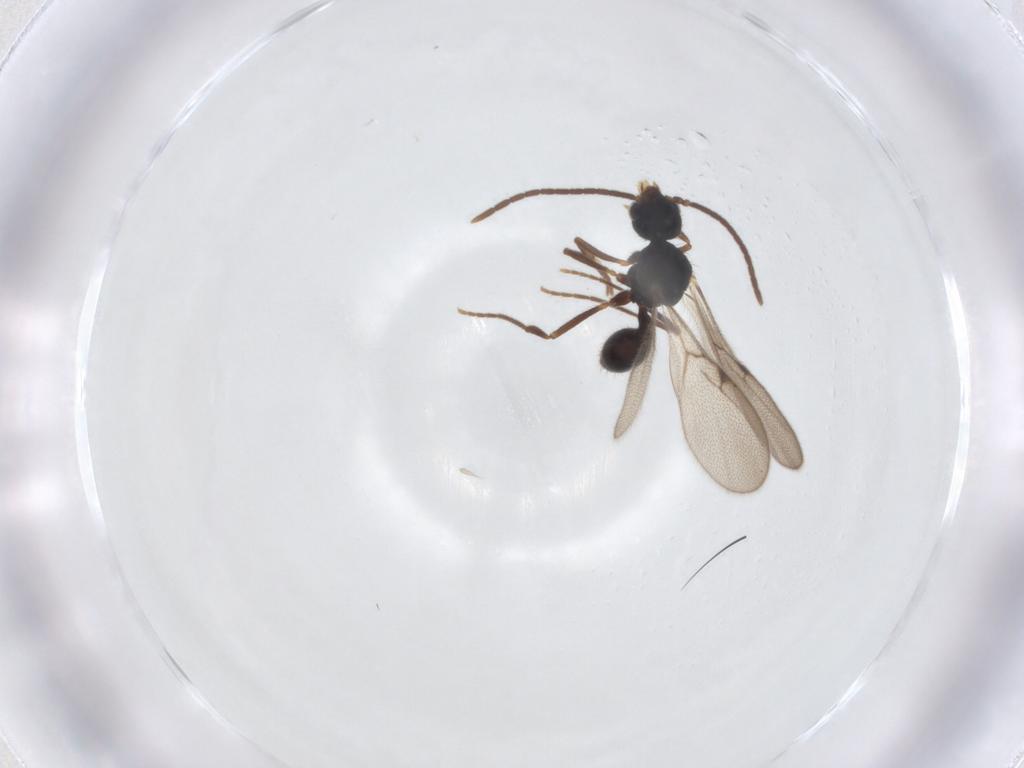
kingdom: Animalia
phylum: Arthropoda
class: Insecta
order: Hymenoptera
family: Formicidae
